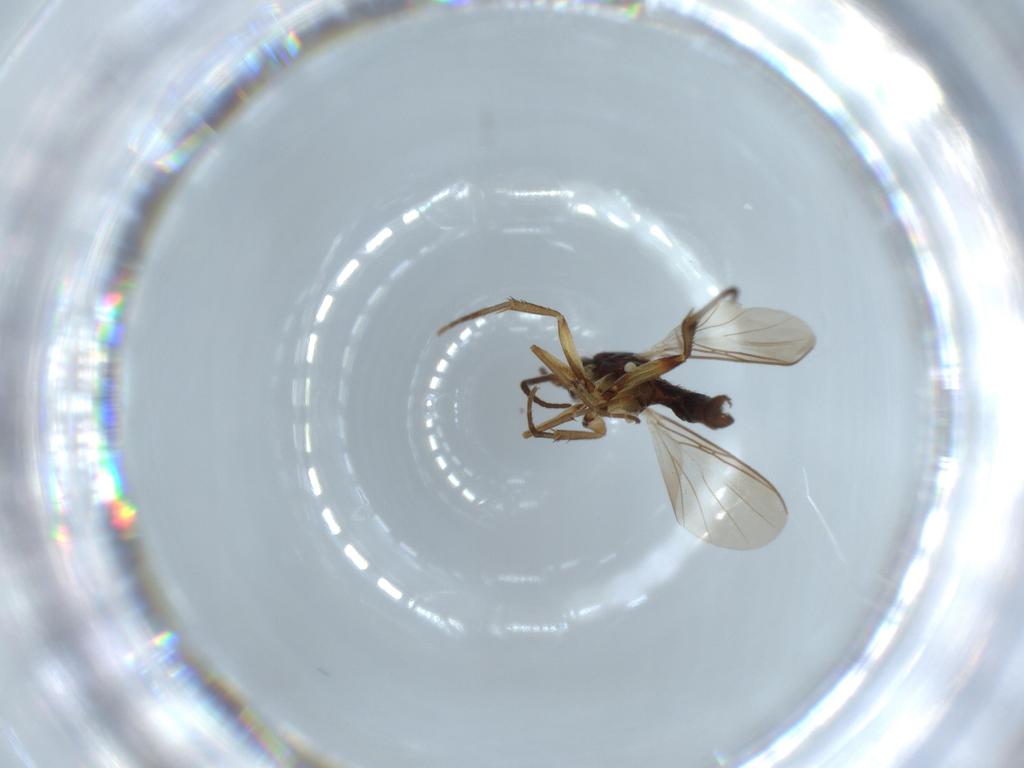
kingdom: Animalia
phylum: Arthropoda
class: Insecta
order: Diptera
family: Mycetophilidae
